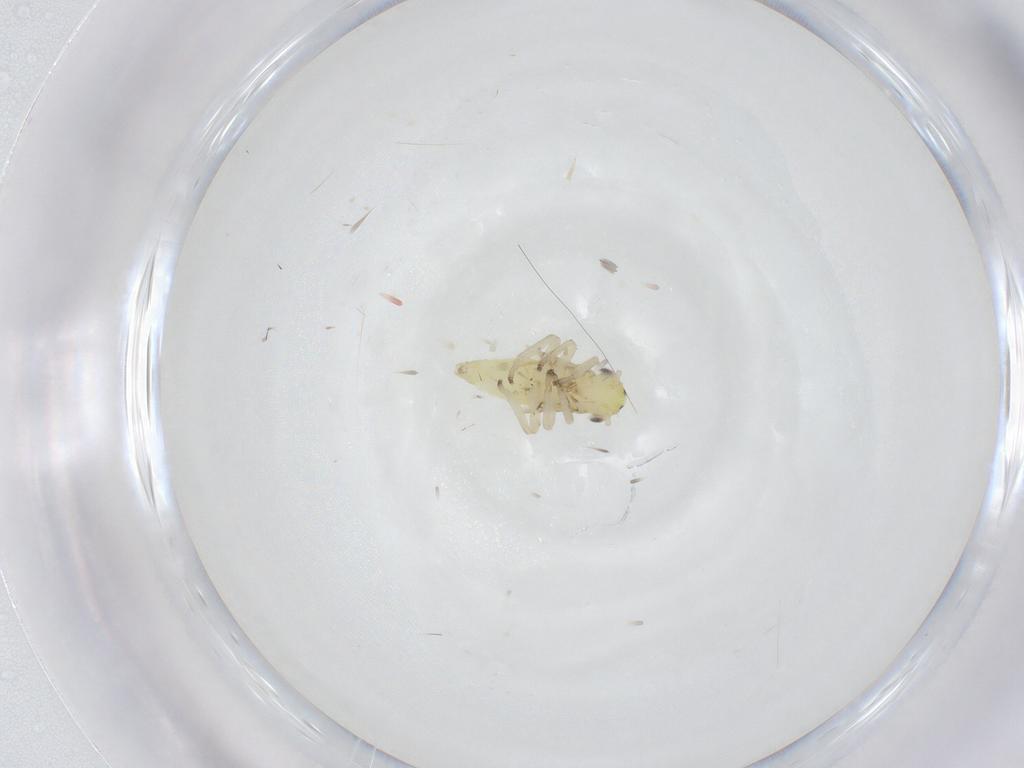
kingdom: Animalia
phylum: Arthropoda
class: Insecta
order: Hemiptera
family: Cicadellidae
